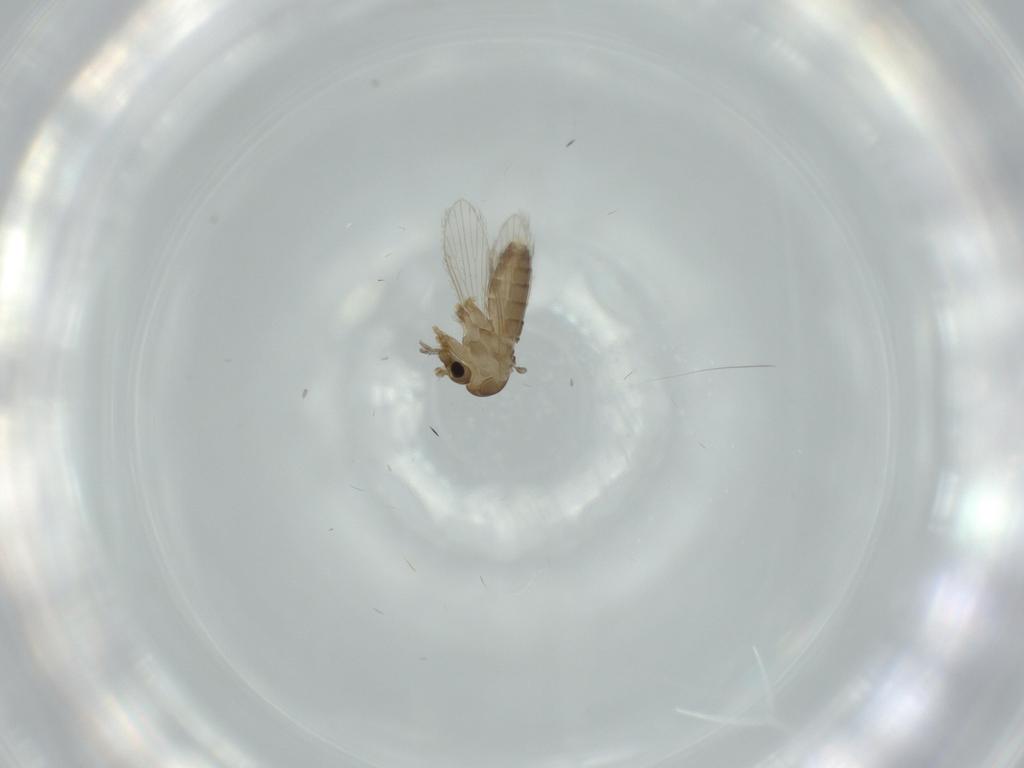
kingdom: Animalia
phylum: Arthropoda
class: Insecta
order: Diptera
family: Psychodidae
